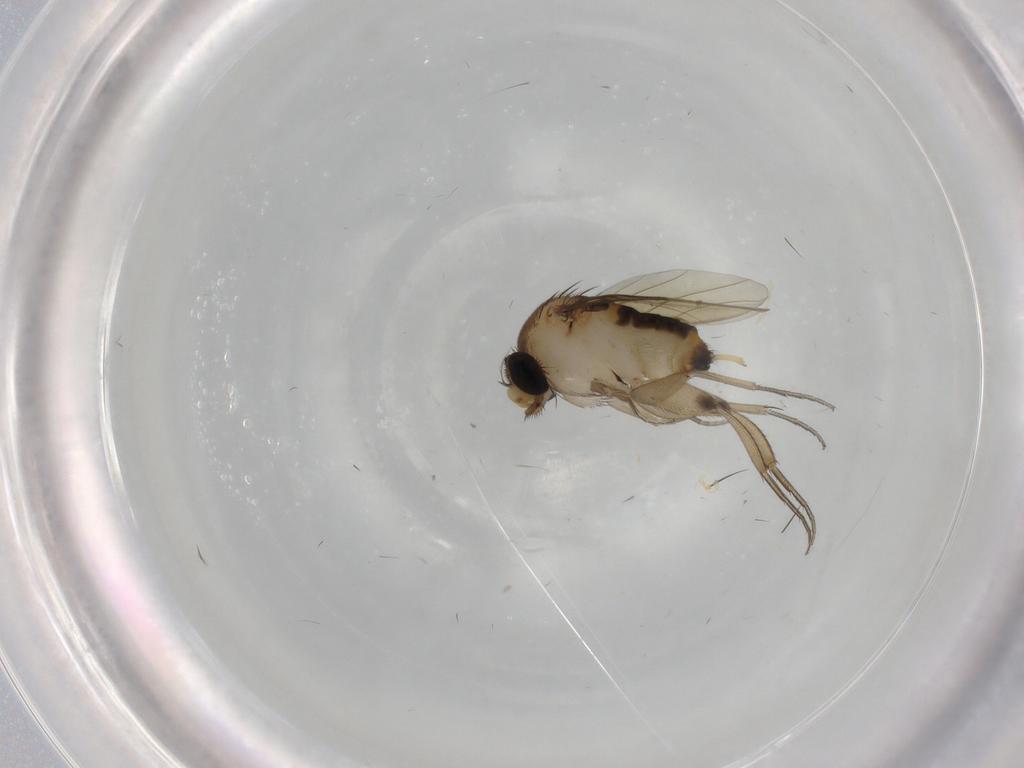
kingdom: Animalia
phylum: Arthropoda
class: Insecta
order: Diptera
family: Phoridae
